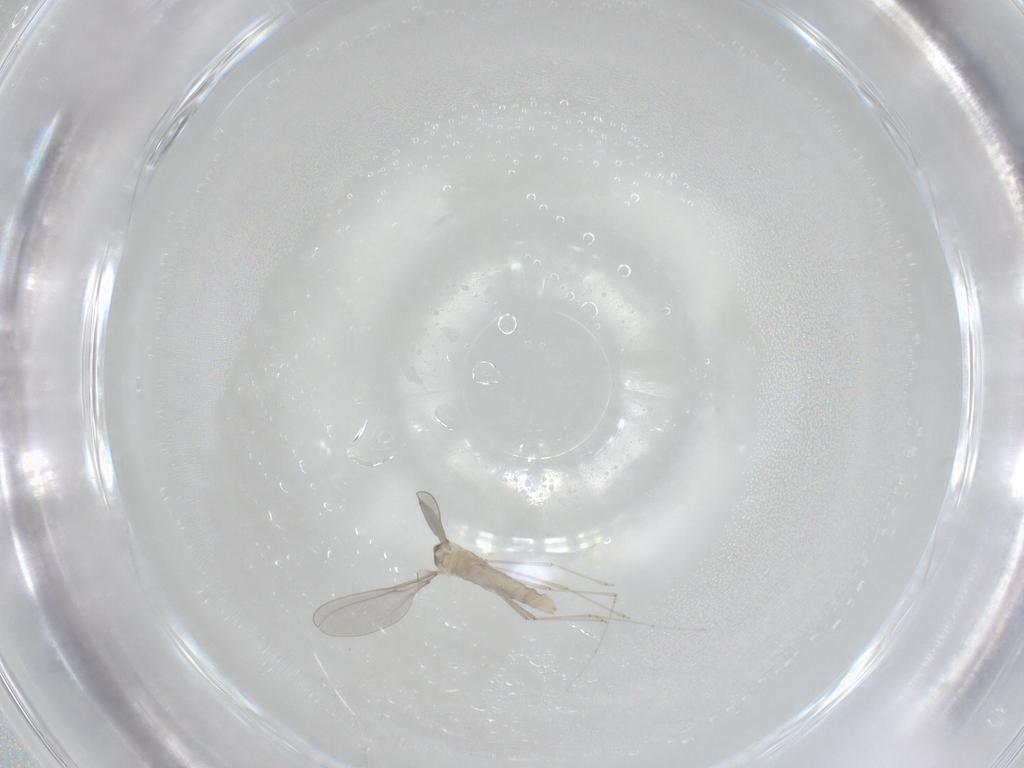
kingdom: Animalia
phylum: Arthropoda
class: Insecta
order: Diptera
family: Cecidomyiidae
